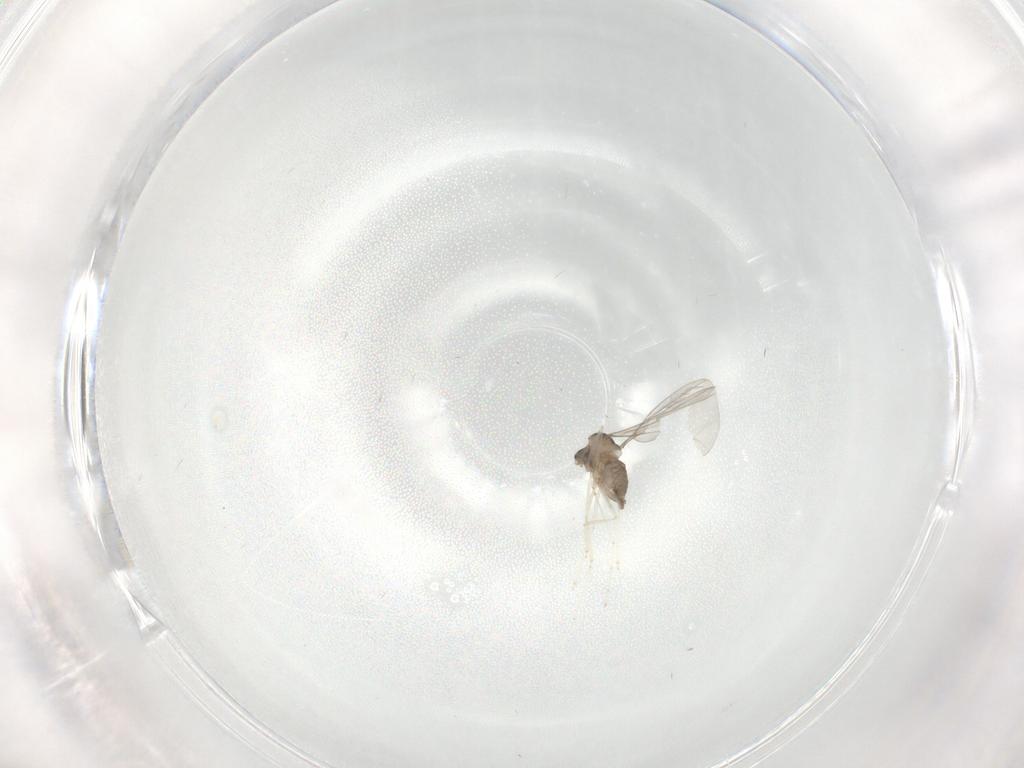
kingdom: Animalia
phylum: Arthropoda
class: Insecta
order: Diptera
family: Cecidomyiidae
